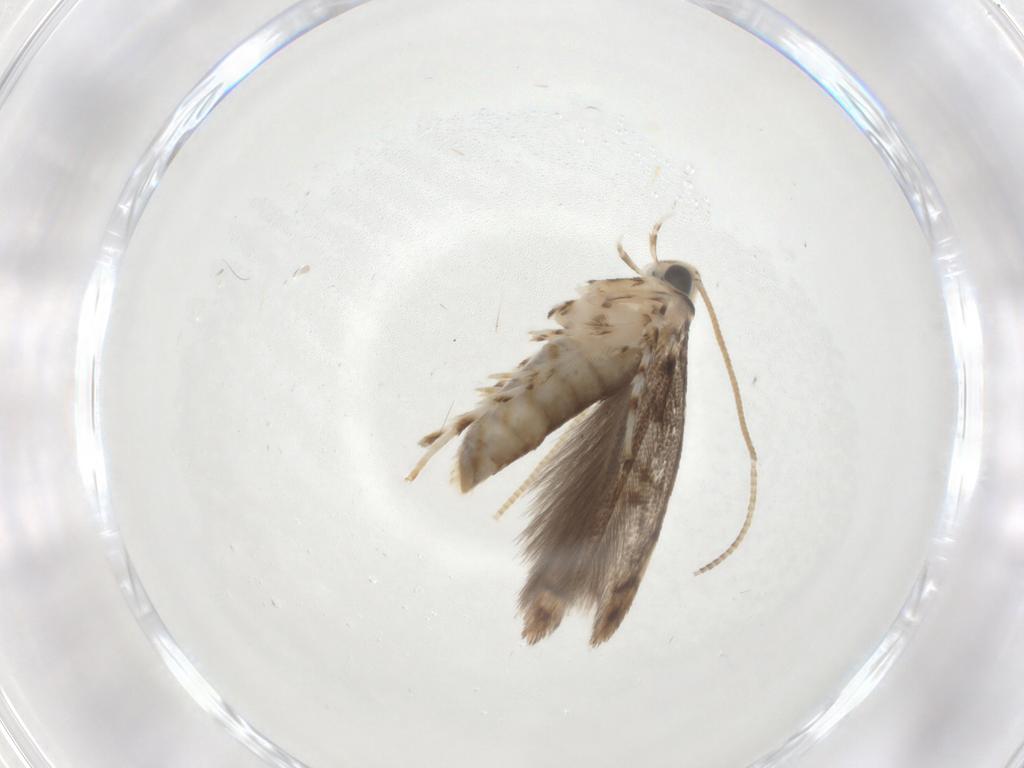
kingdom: Animalia
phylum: Arthropoda
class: Insecta
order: Lepidoptera
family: Gracillariidae
